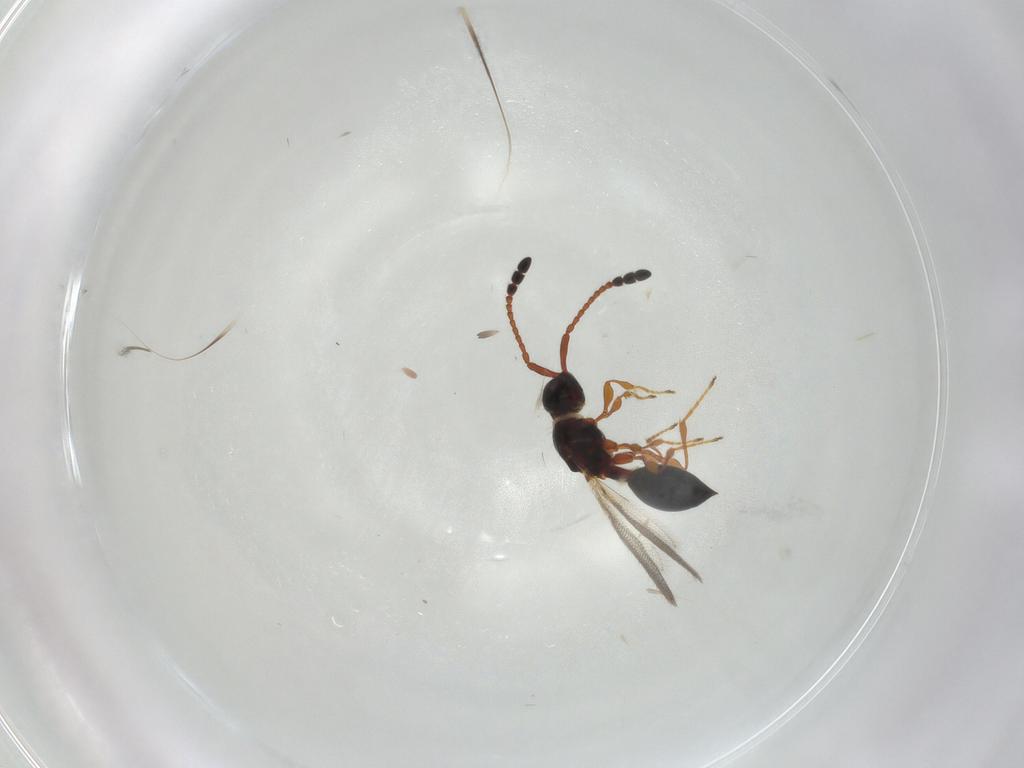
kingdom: Animalia
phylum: Arthropoda
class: Insecta
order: Hymenoptera
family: Diapriidae
